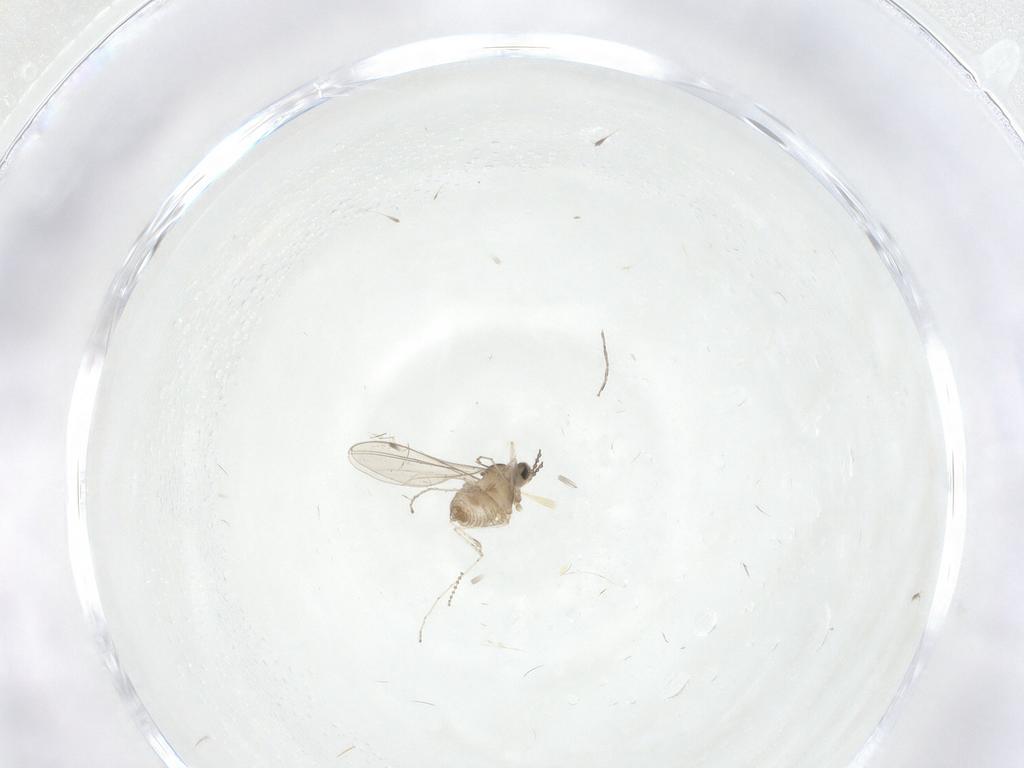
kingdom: Animalia
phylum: Arthropoda
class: Insecta
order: Diptera
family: Cecidomyiidae
